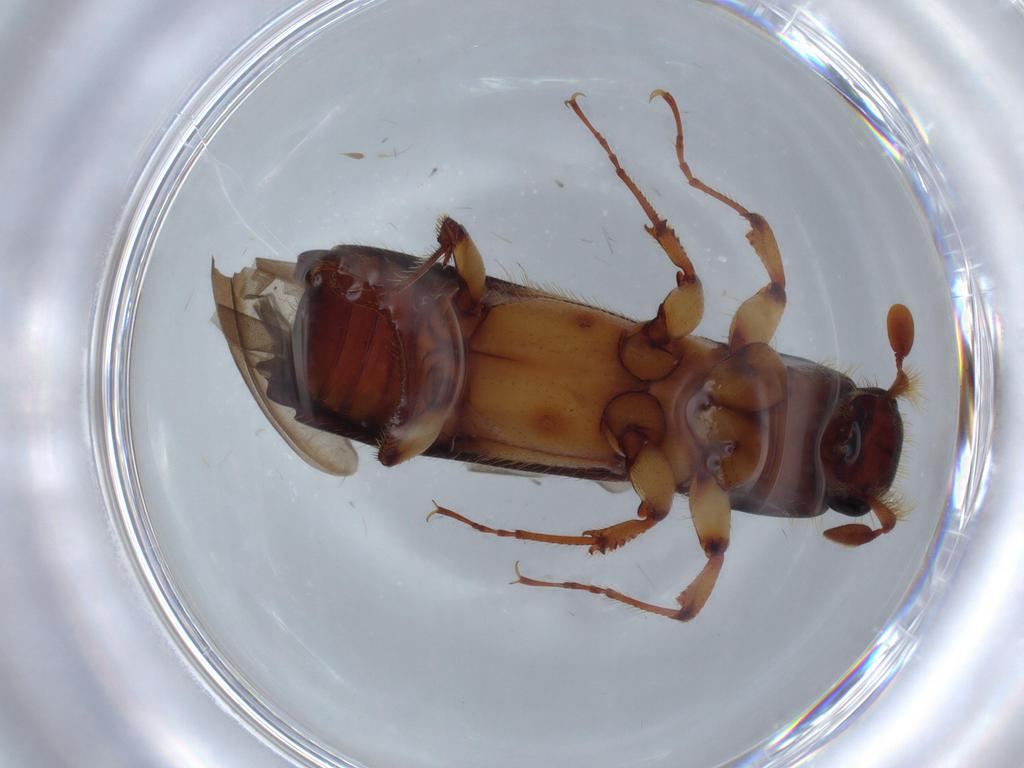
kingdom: Animalia
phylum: Arthropoda
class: Insecta
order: Coleoptera
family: Curculionidae
